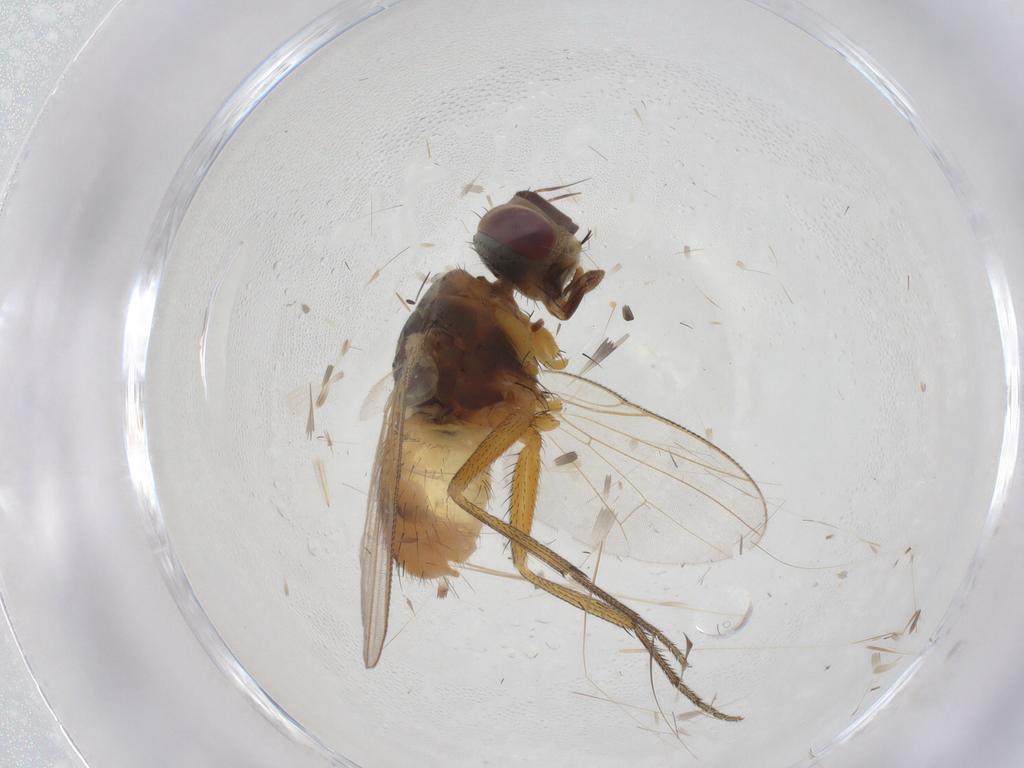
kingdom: Animalia
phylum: Arthropoda
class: Insecta
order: Diptera
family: Muscidae
